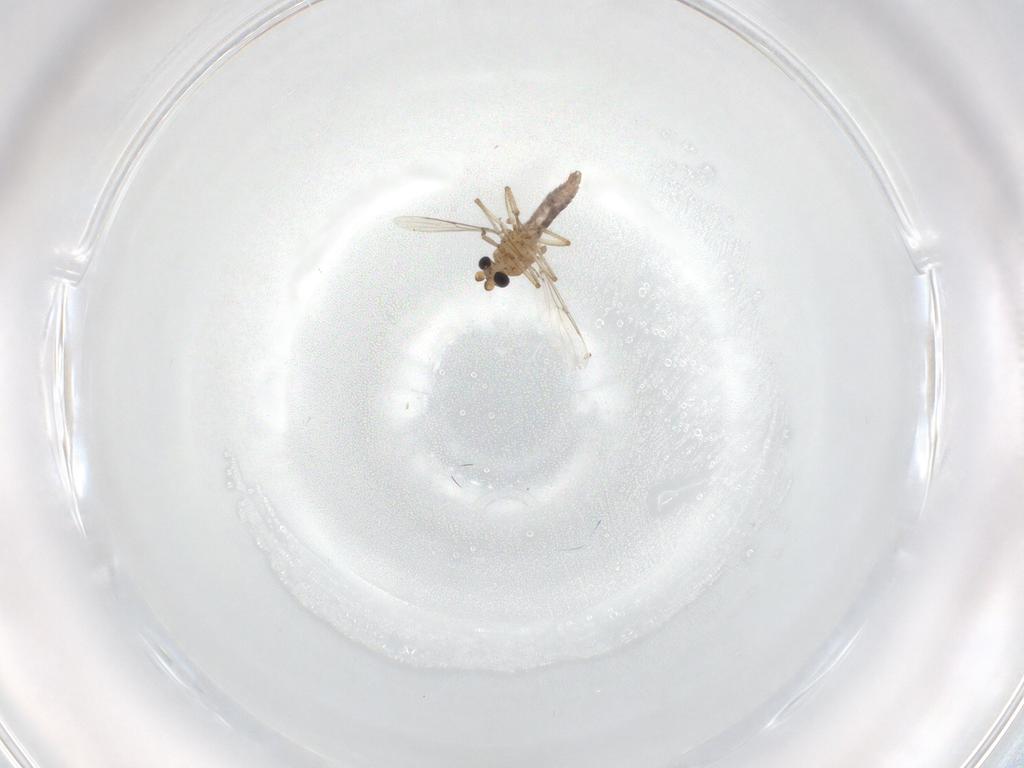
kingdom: Animalia
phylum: Arthropoda
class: Insecta
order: Diptera
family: Ceratopogonidae
